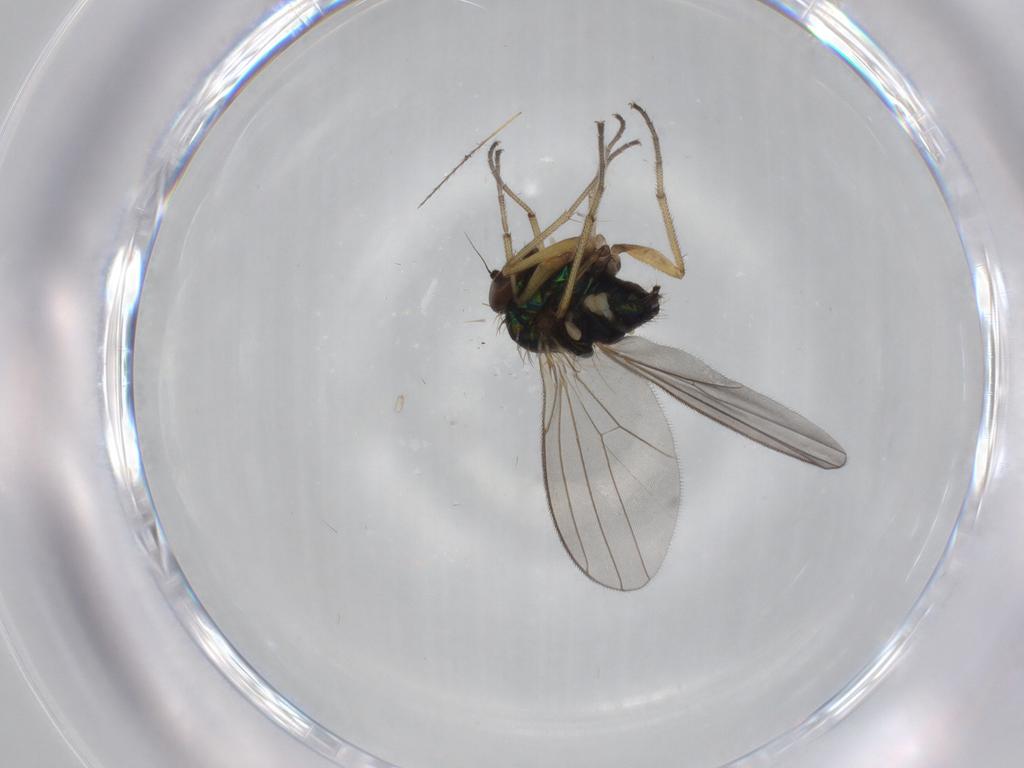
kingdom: Animalia
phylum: Arthropoda
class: Insecta
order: Diptera
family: Dolichopodidae
